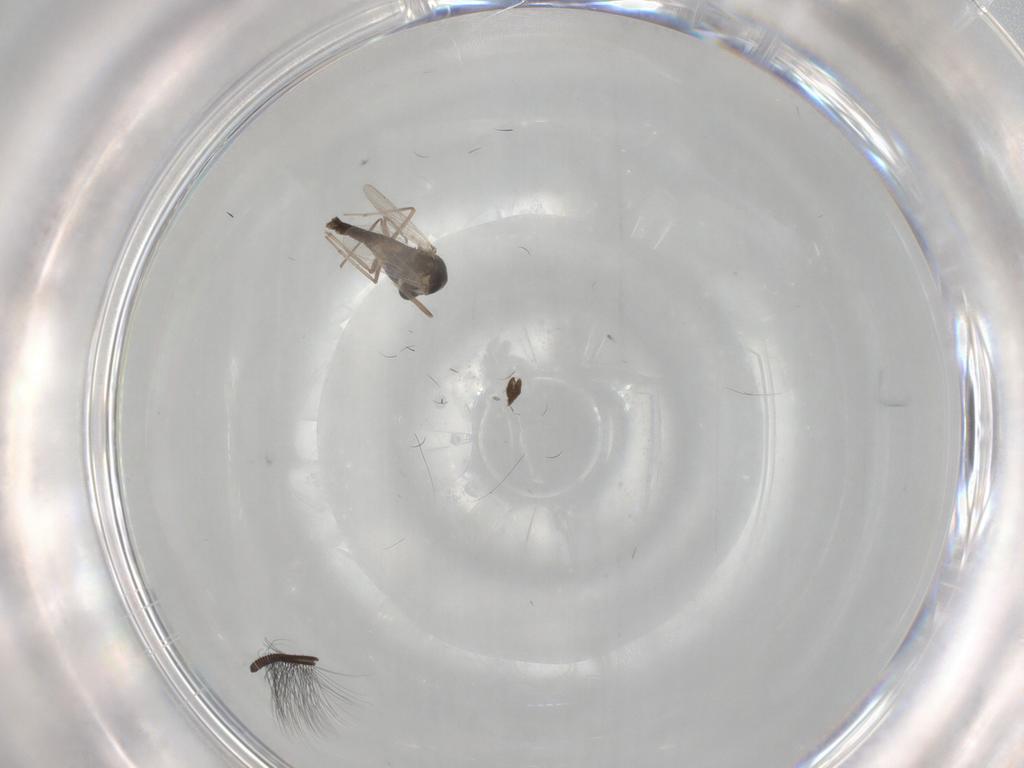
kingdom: Animalia
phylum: Arthropoda
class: Insecta
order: Diptera
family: Chironomidae
